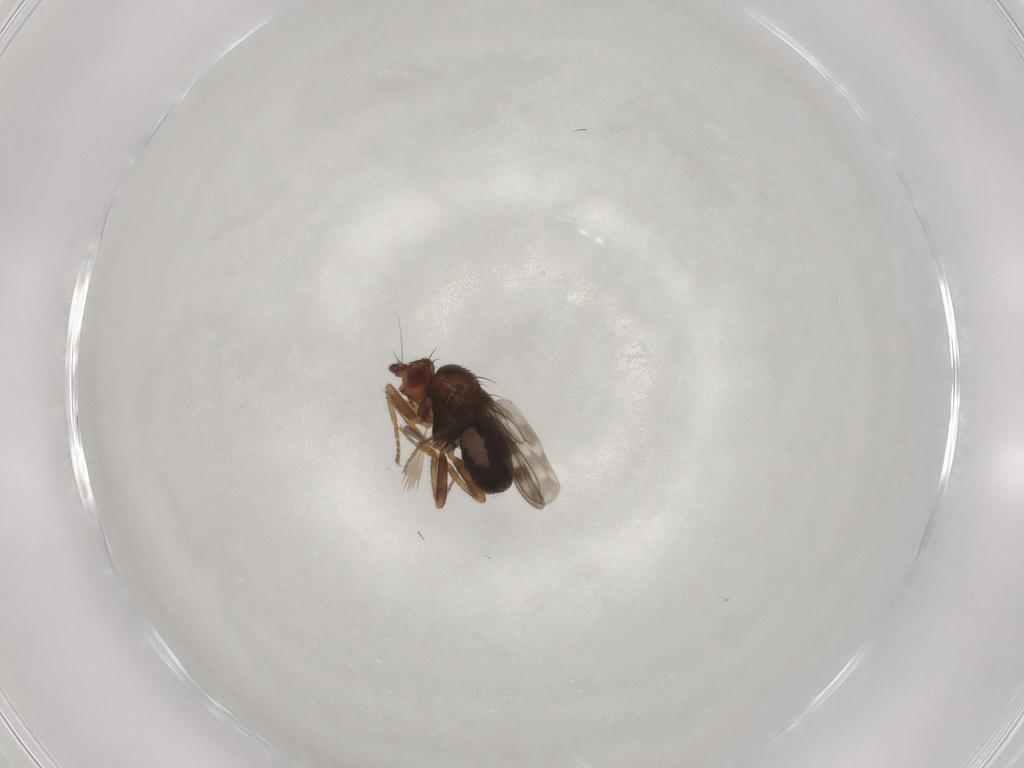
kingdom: Animalia
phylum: Arthropoda
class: Insecta
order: Diptera
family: Sphaeroceridae
